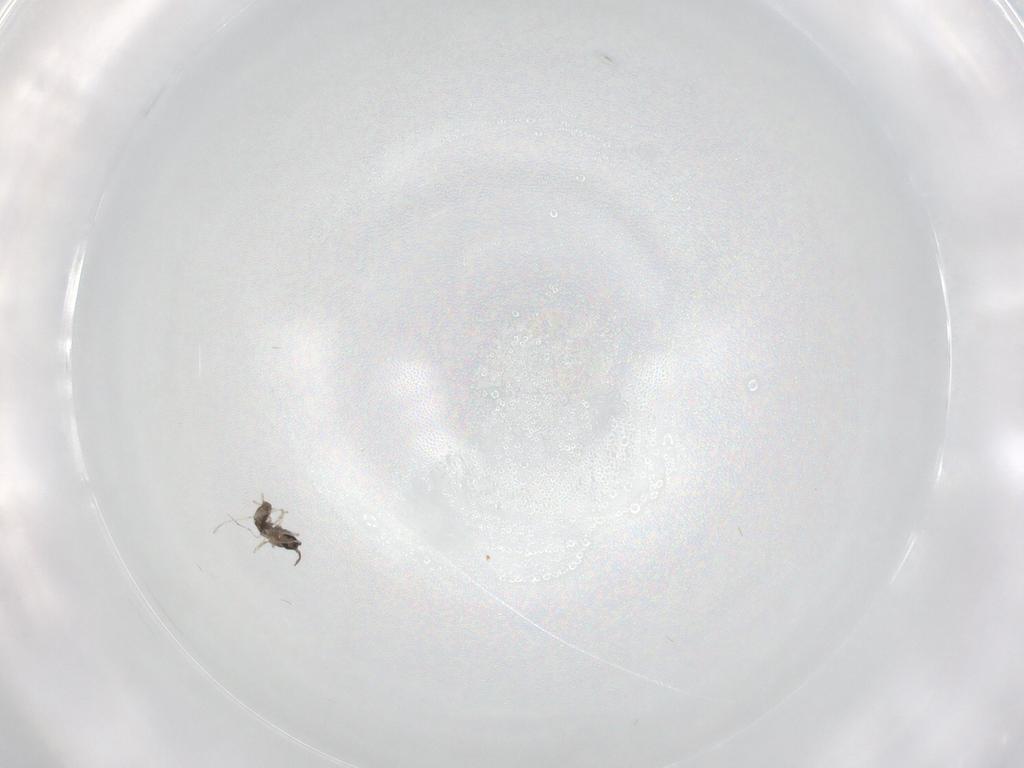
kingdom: Animalia
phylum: Arthropoda
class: Insecta
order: Diptera
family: Cecidomyiidae
